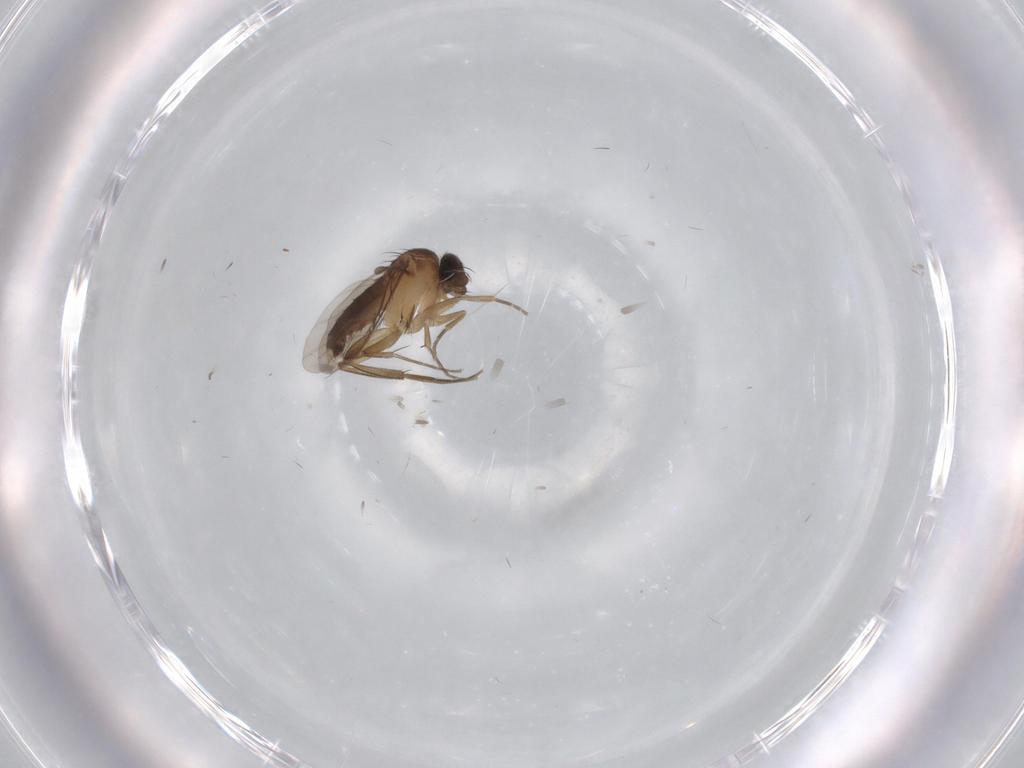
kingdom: Animalia
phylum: Arthropoda
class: Insecta
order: Diptera
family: Phoridae
